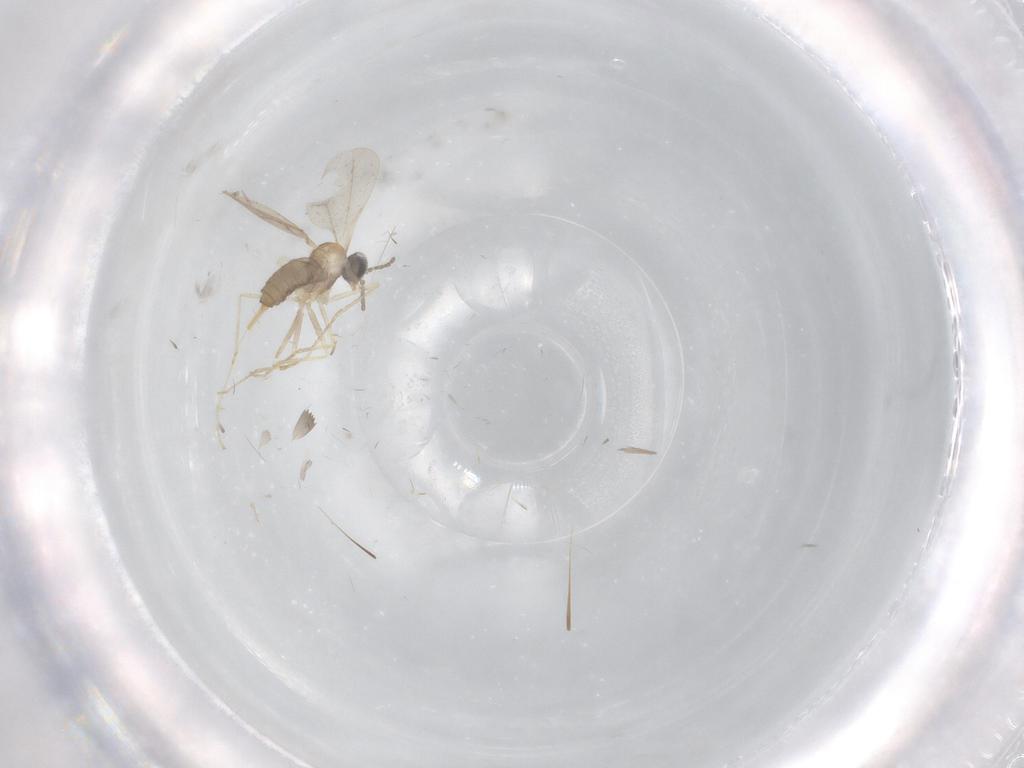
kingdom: Animalia
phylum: Arthropoda
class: Insecta
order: Diptera
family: Cecidomyiidae
